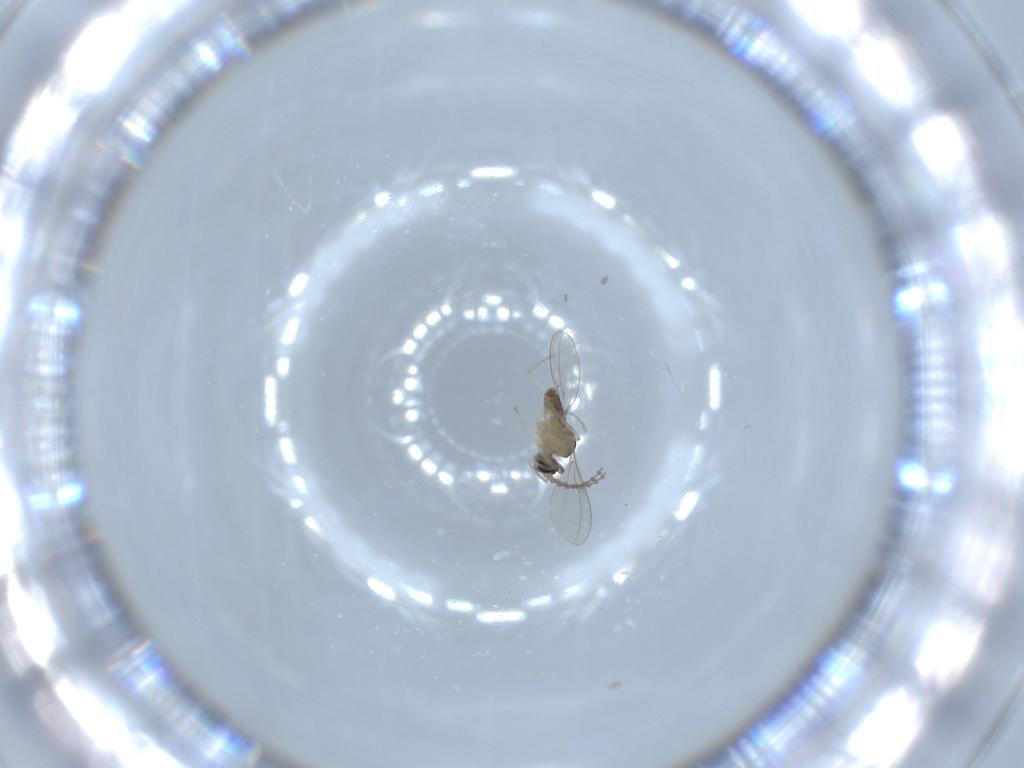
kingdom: Animalia
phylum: Arthropoda
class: Insecta
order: Diptera
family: Cecidomyiidae
